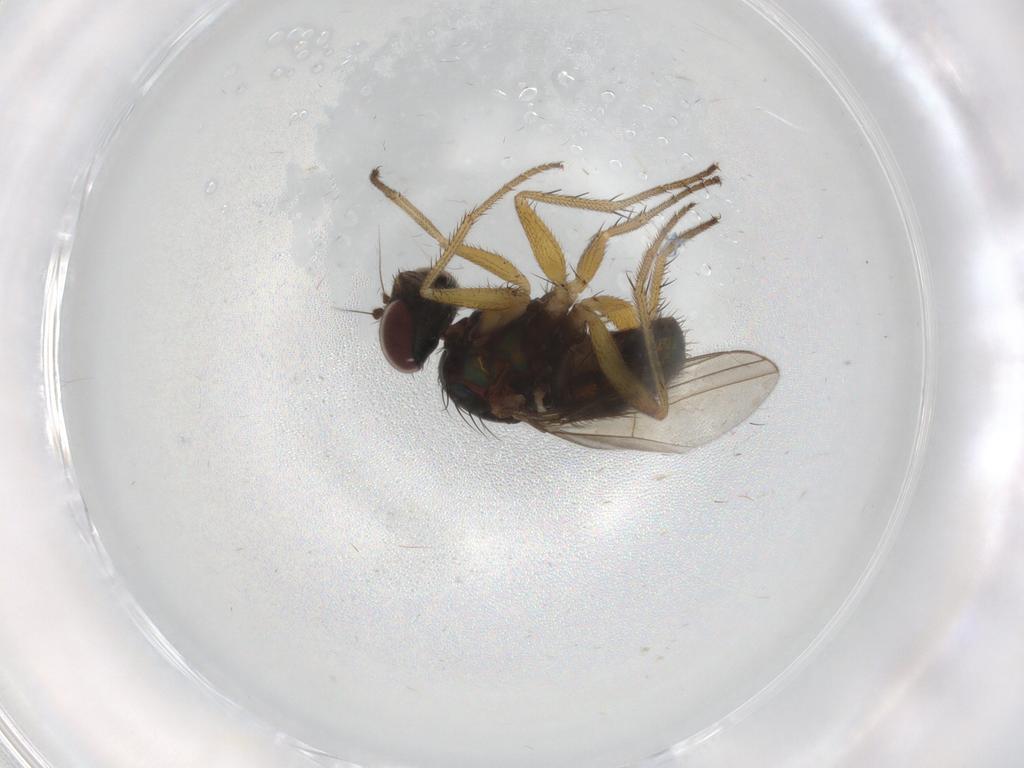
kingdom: Animalia
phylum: Arthropoda
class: Insecta
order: Diptera
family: Dolichopodidae
